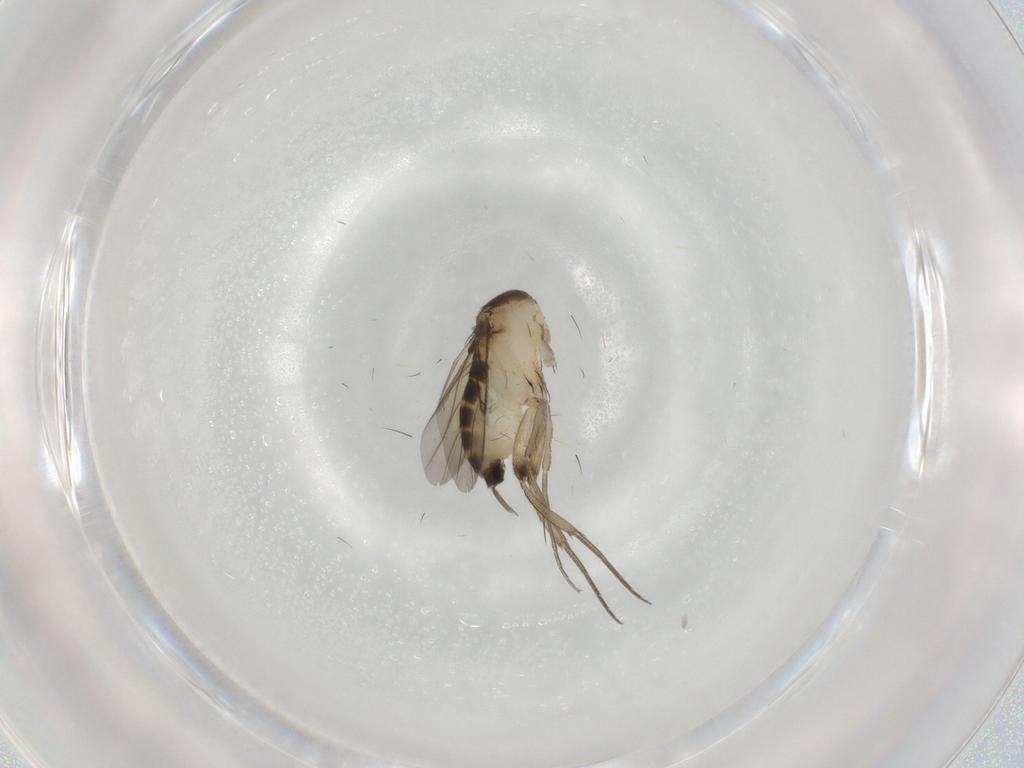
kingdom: Animalia
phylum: Arthropoda
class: Insecta
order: Diptera
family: Phoridae
